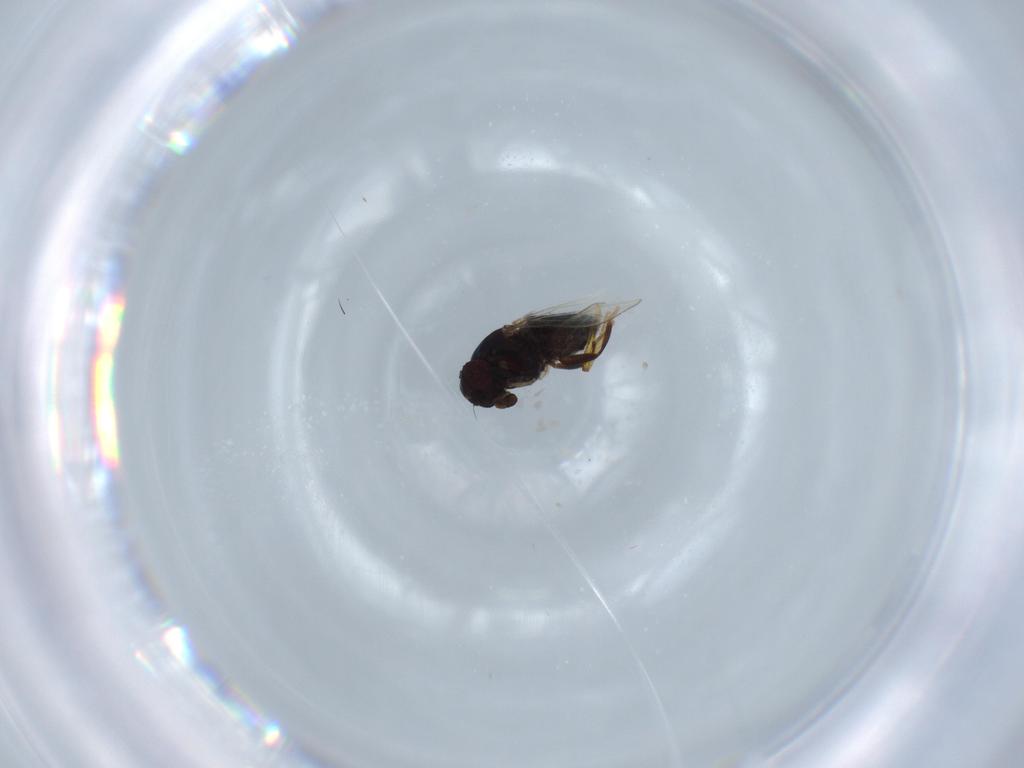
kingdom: Animalia
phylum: Arthropoda
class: Insecta
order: Diptera
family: Ephydridae
